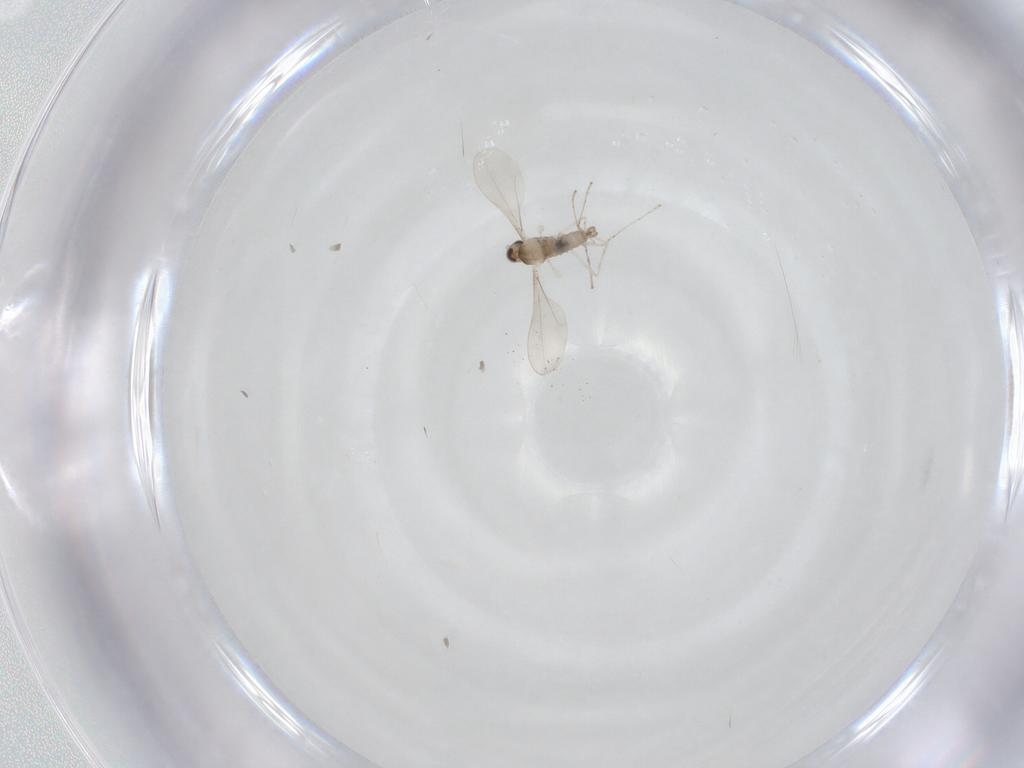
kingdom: Animalia
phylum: Arthropoda
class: Insecta
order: Diptera
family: Cecidomyiidae
